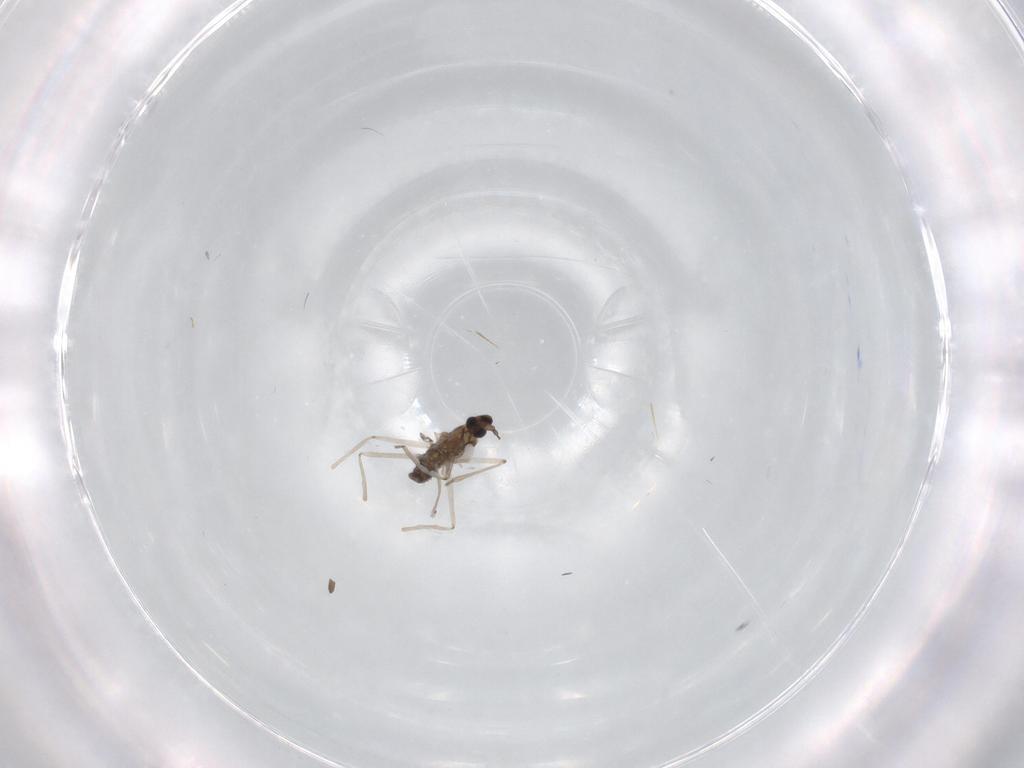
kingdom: Animalia
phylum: Arthropoda
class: Insecta
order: Diptera
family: Cecidomyiidae
